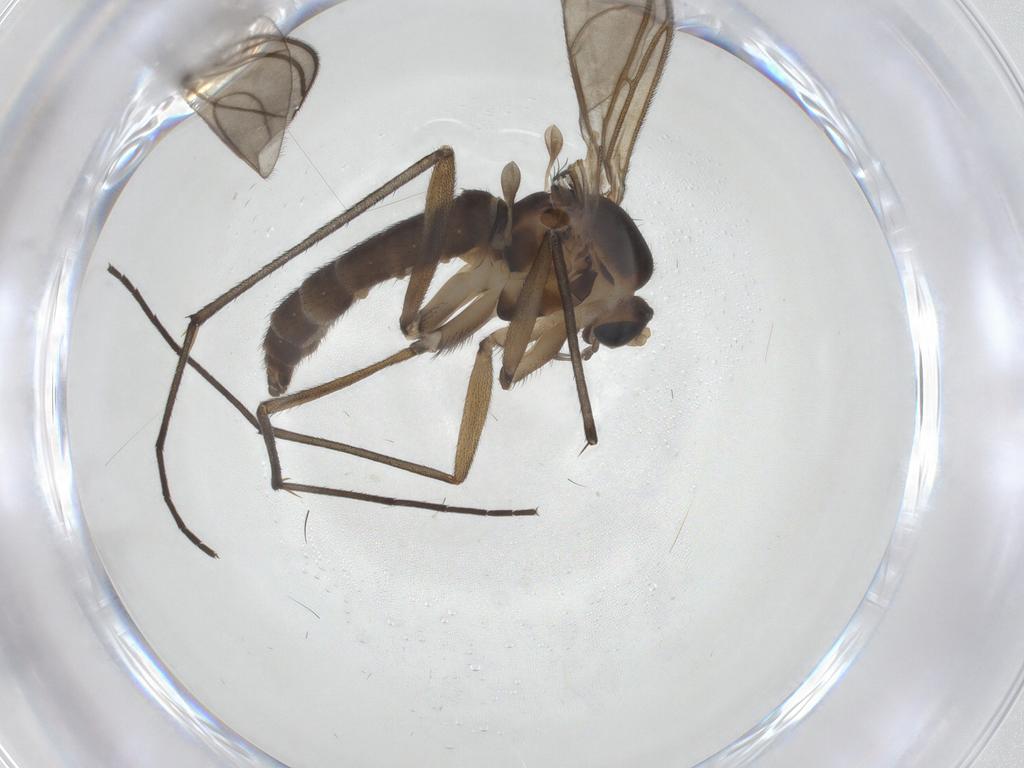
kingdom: Animalia
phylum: Arthropoda
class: Insecta
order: Diptera
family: Sciaridae
